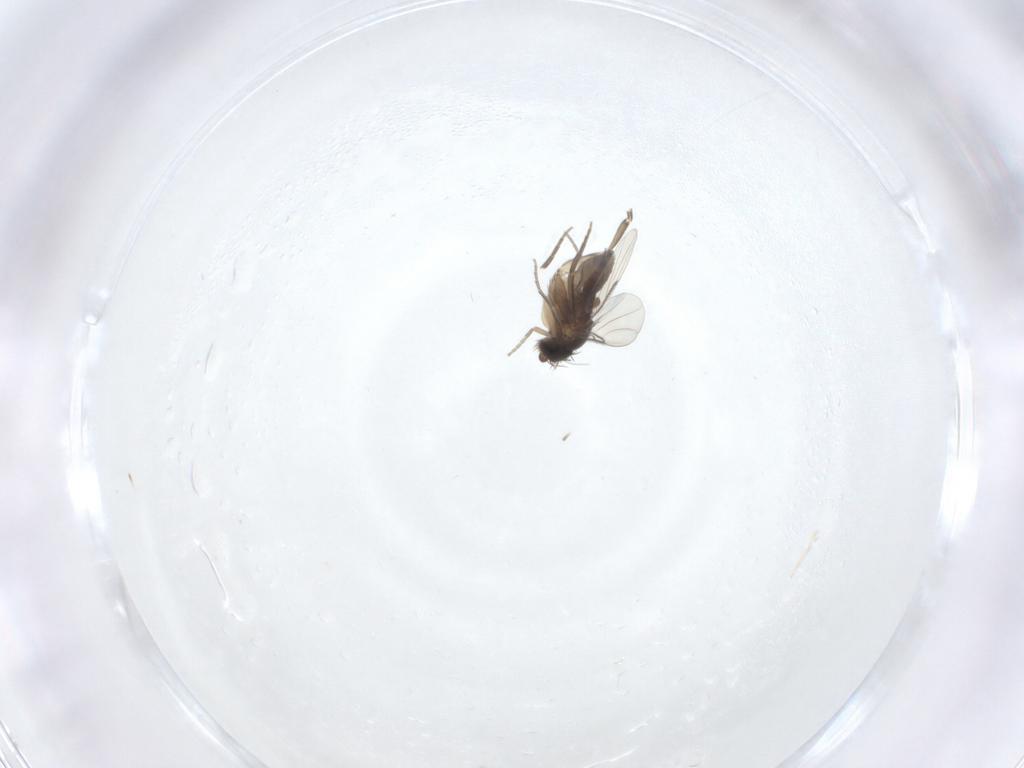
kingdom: Animalia
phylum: Arthropoda
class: Insecta
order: Diptera
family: Phoridae
